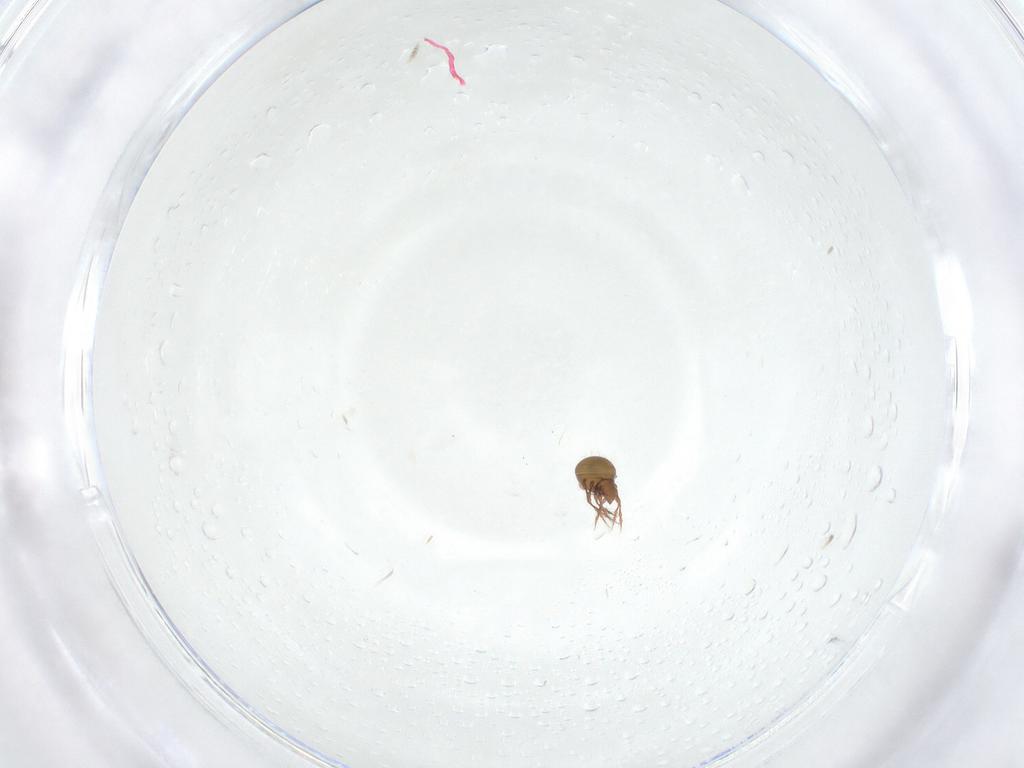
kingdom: Animalia
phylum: Arthropoda
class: Arachnida
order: Sarcoptiformes
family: Oppiidae
